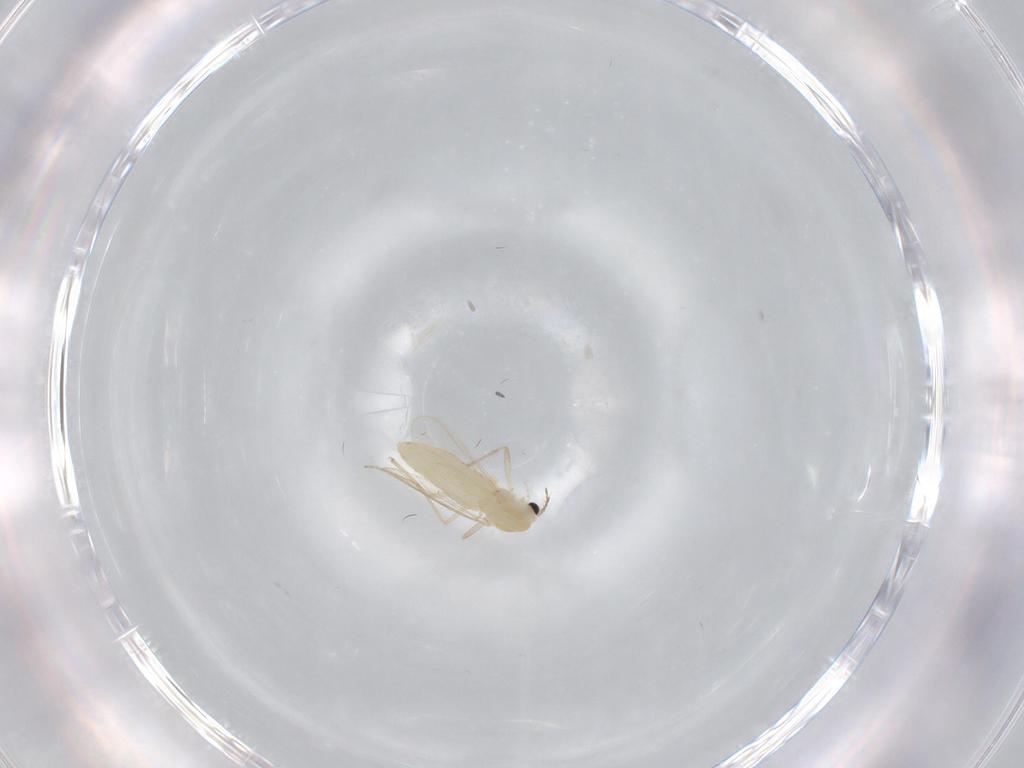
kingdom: Animalia
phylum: Arthropoda
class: Insecta
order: Diptera
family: Chironomidae
